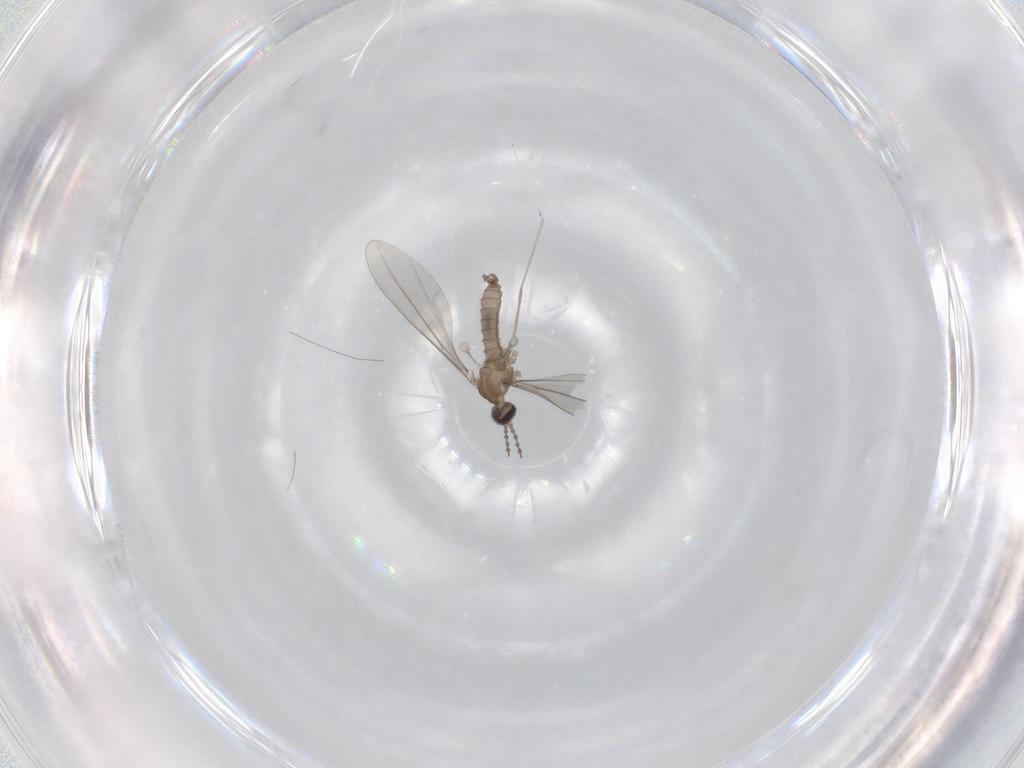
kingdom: Animalia
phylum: Arthropoda
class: Insecta
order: Diptera
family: Cecidomyiidae
